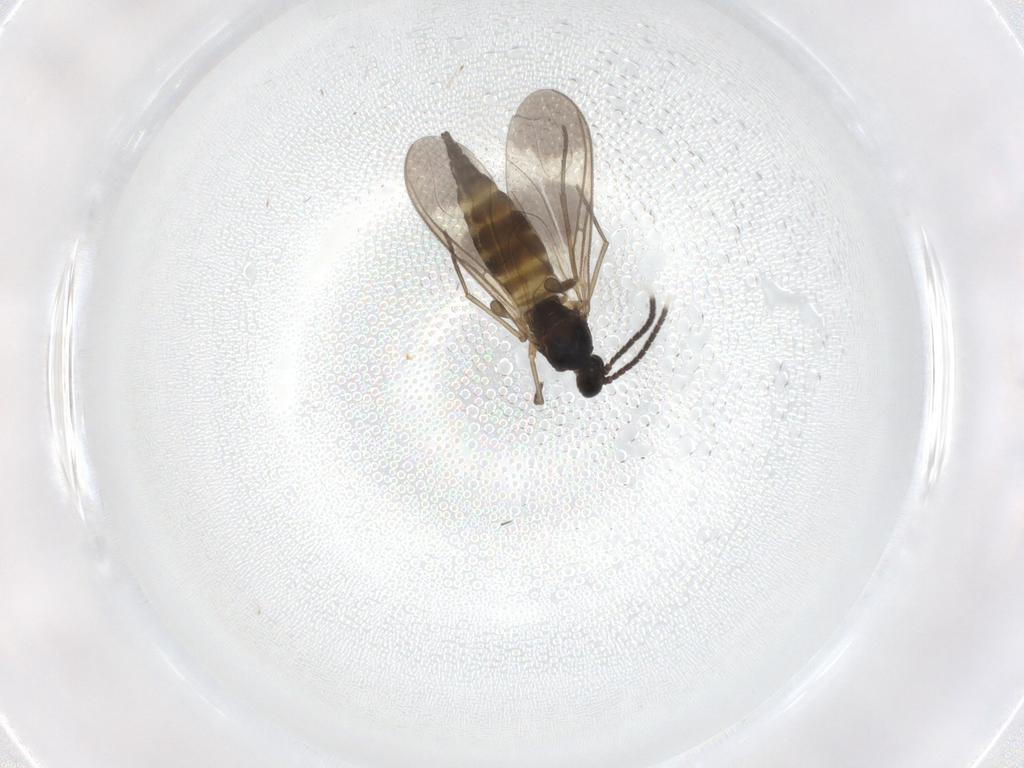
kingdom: Animalia
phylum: Arthropoda
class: Insecta
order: Diptera
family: Sciaridae
